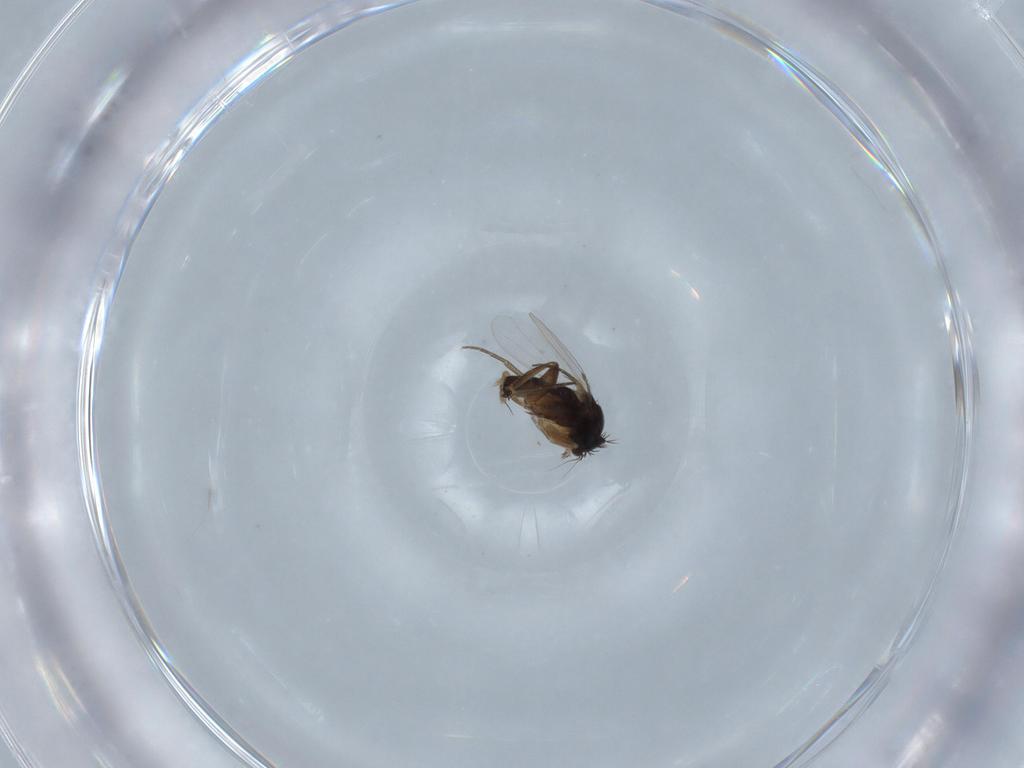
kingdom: Animalia
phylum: Arthropoda
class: Insecta
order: Diptera
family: Phoridae
